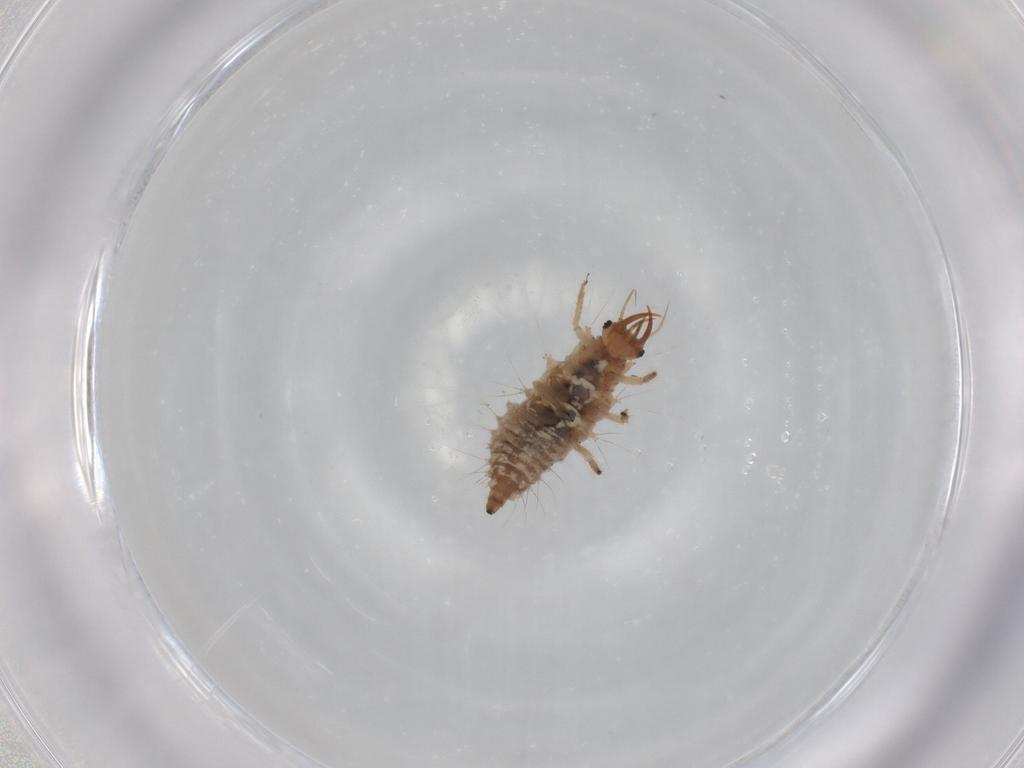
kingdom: Animalia
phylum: Arthropoda
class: Insecta
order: Neuroptera
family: Chrysopidae
